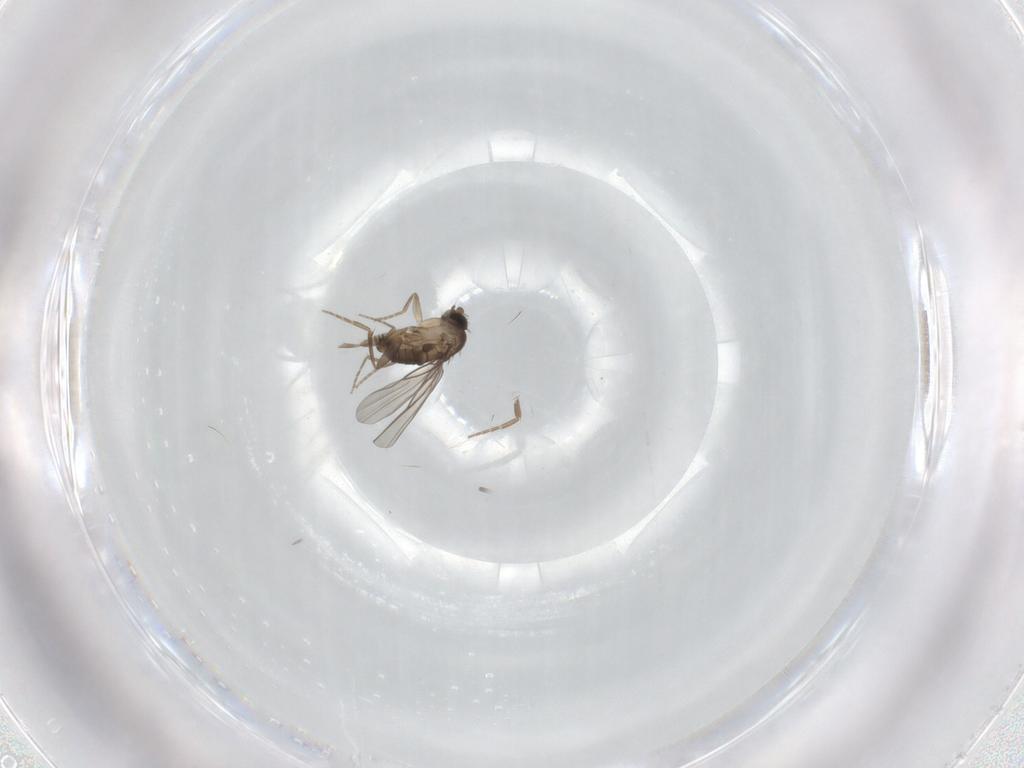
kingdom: Animalia
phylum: Arthropoda
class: Insecta
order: Diptera
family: Phoridae
